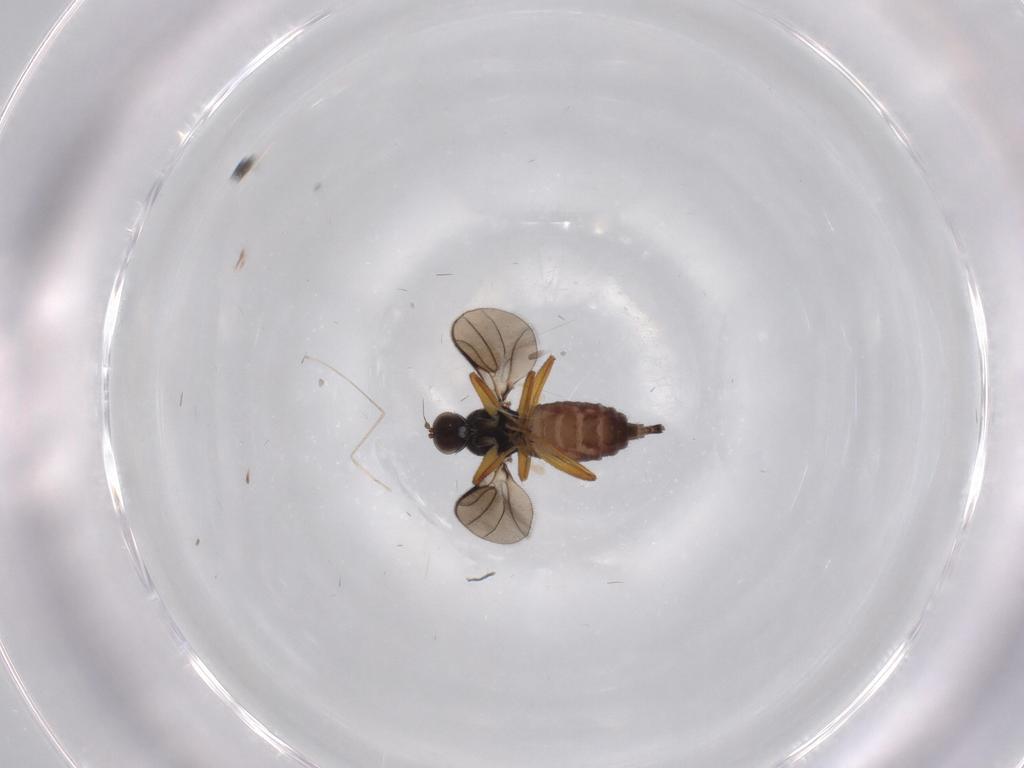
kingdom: Animalia
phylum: Arthropoda
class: Insecta
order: Diptera
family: Hybotidae
